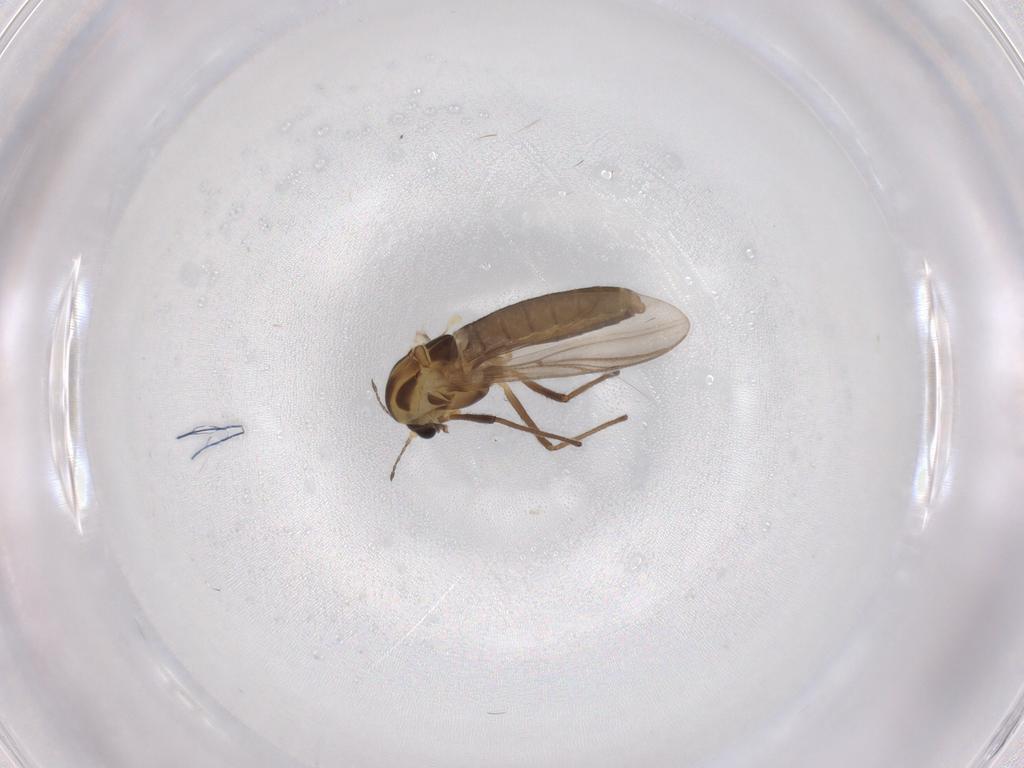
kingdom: Animalia
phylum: Arthropoda
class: Insecta
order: Diptera
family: Chironomidae
